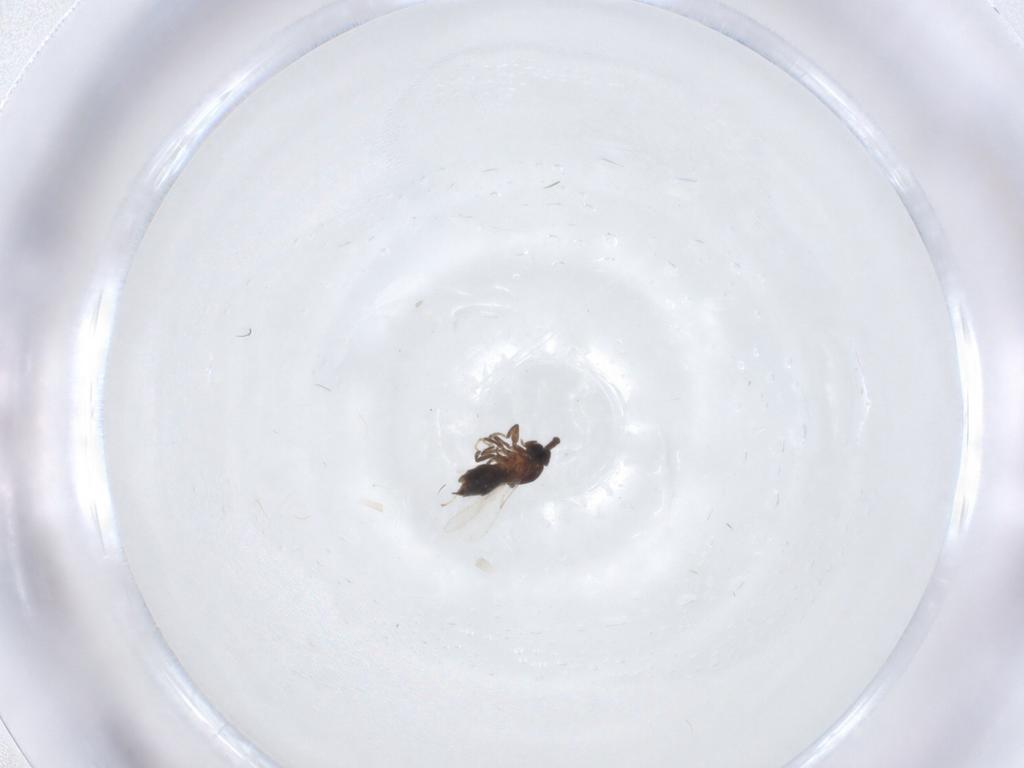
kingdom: Animalia
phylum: Arthropoda
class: Insecta
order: Diptera
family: Scatopsidae
